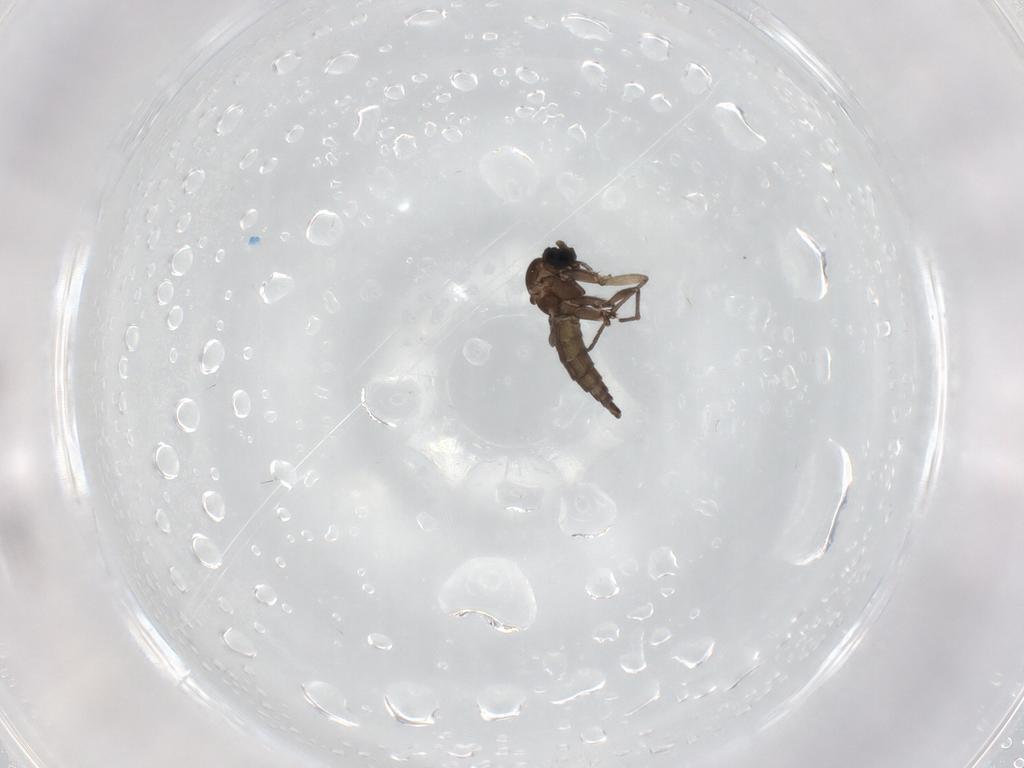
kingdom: Animalia
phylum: Arthropoda
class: Insecta
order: Diptera
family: Sciaridae
